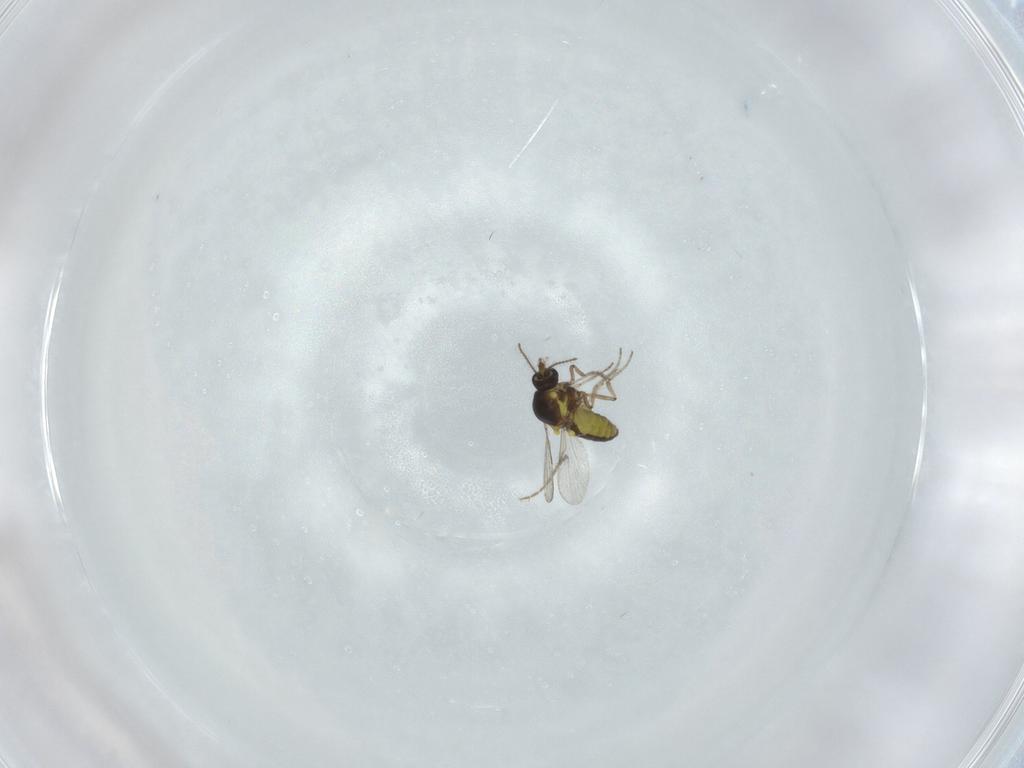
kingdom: Animalia
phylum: Arthropoda
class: Insecta
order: Diptera
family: Ceratopogonidae
